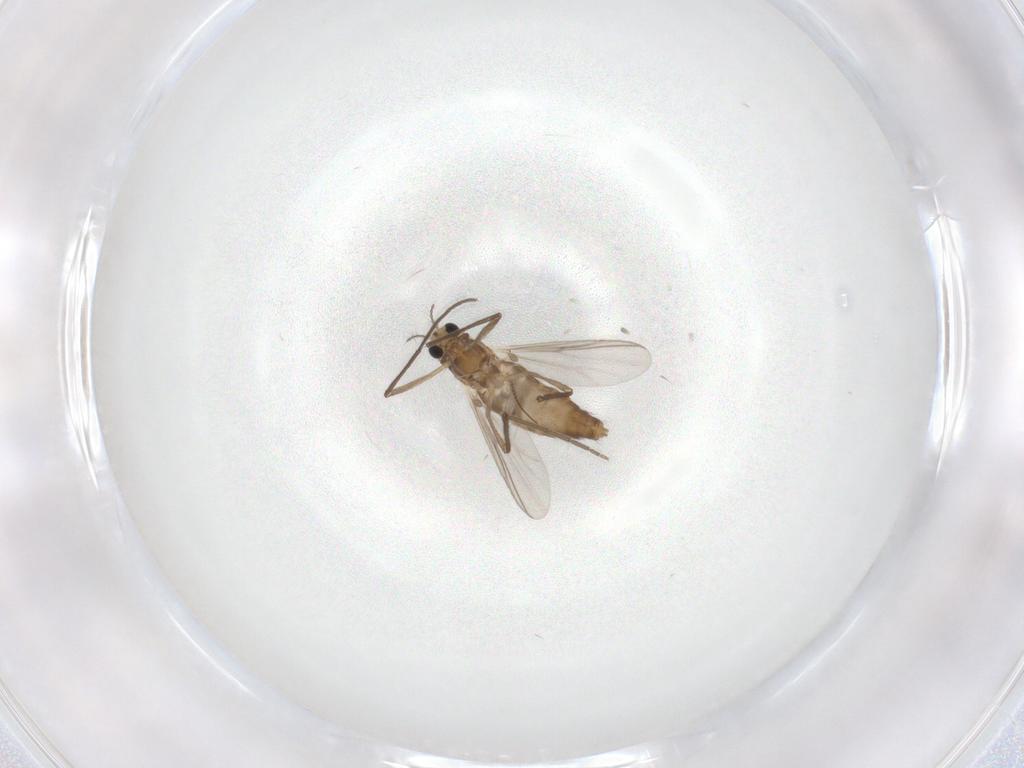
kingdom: Animalia
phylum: Arthropoda
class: Insecta
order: Diptera
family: Chironomidae
